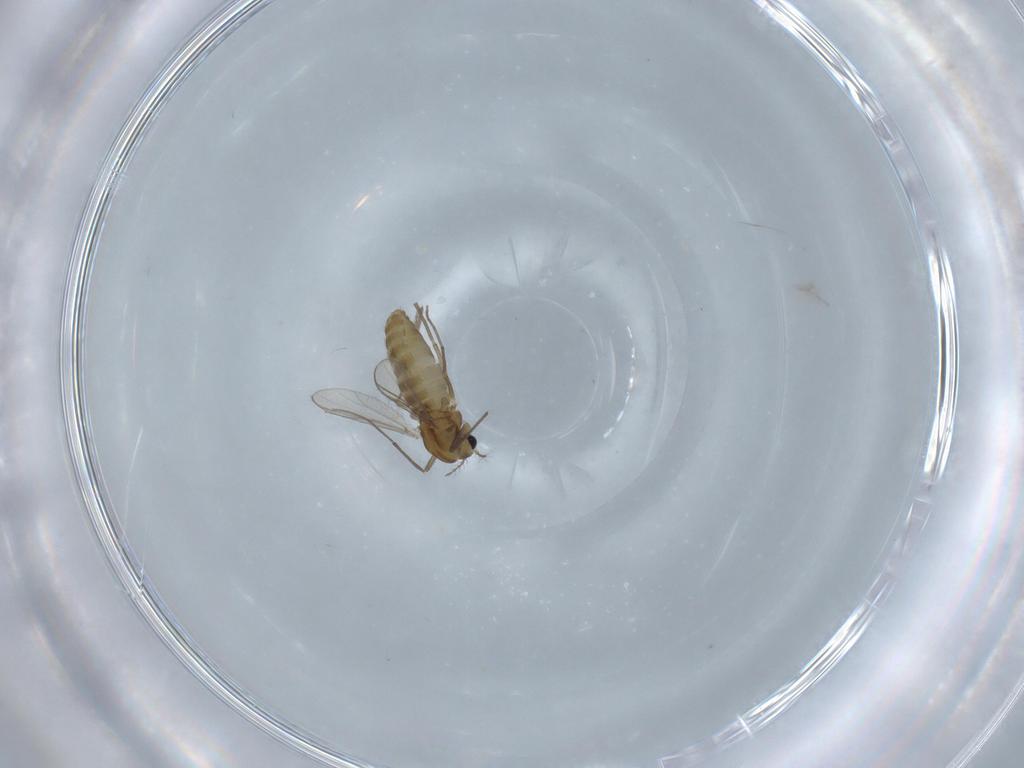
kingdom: Animalia
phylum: Arthropoda
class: Insecta
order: Diptera
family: Chironomidae
